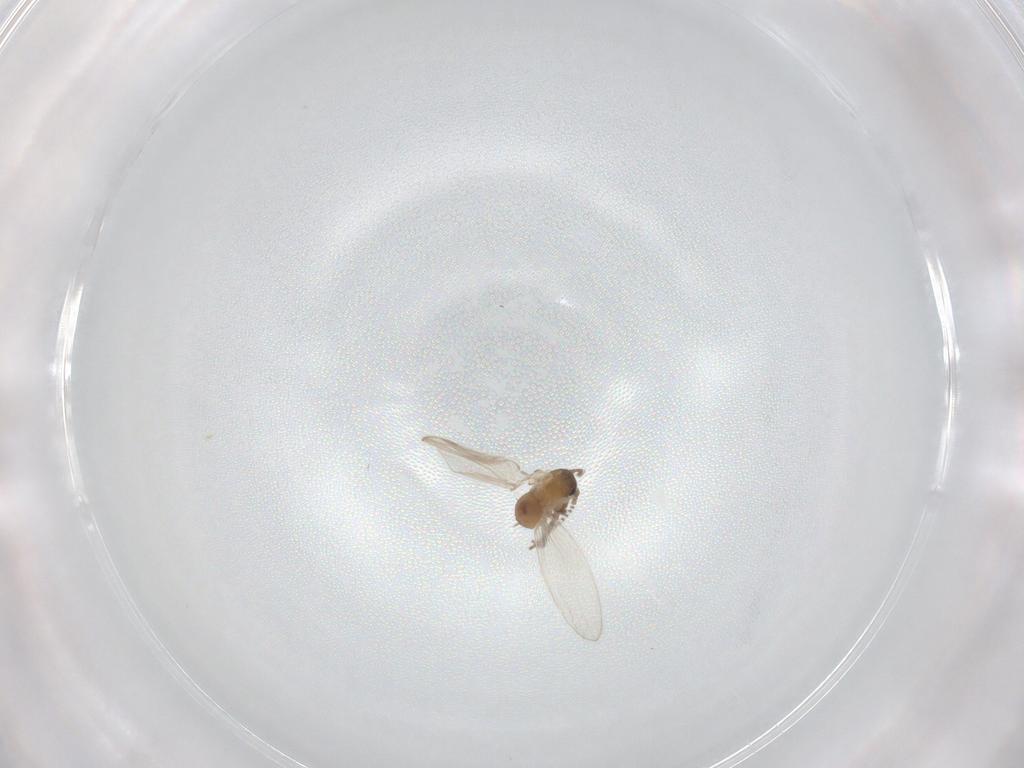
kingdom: Animalia
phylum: Arthropoda
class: Insecta
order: Diptera
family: Psychodidae
